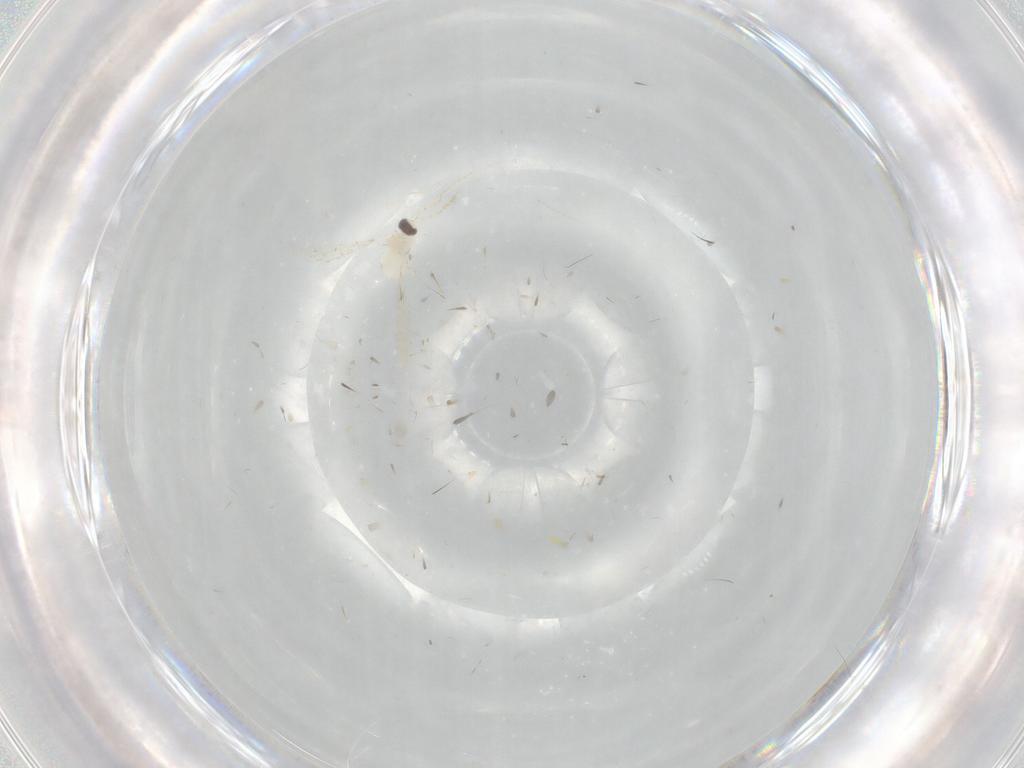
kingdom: Animalia
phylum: Arthropoda
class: Insecta
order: Diptera
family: Cecidomyiidae
